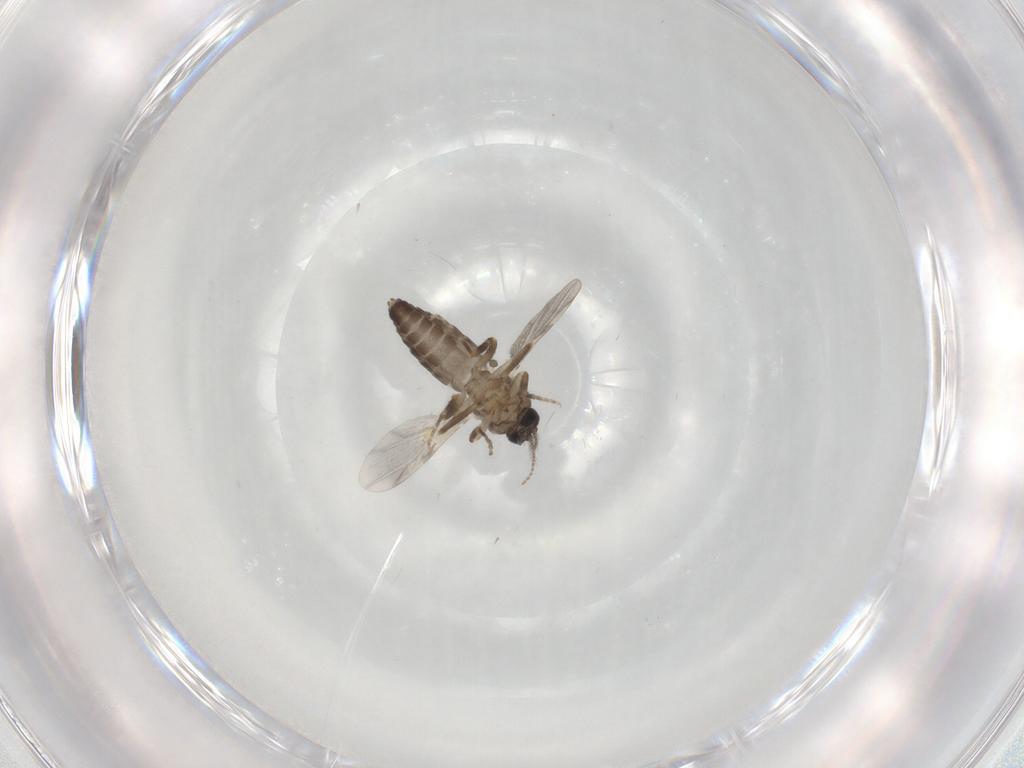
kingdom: Animalia
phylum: Arthropoda
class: Insecta
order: Diptera
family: Ceratopogonidae
